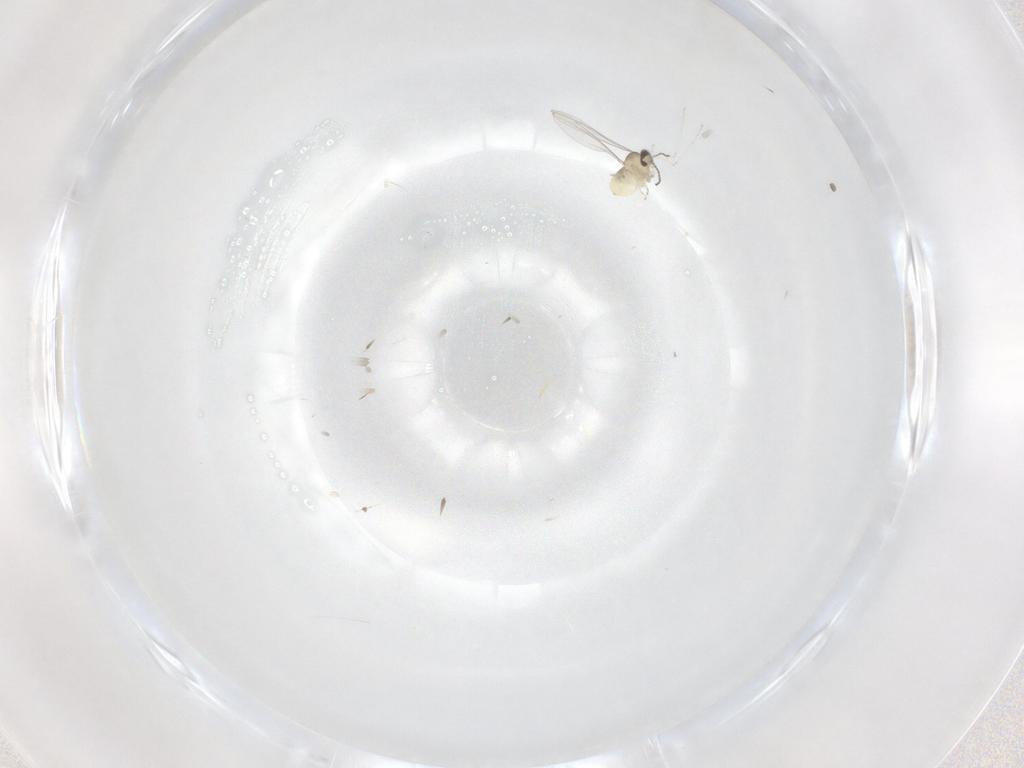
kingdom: Animalia
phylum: Arthropoda
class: Insecta
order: Diptera
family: Cecidomyiidae
